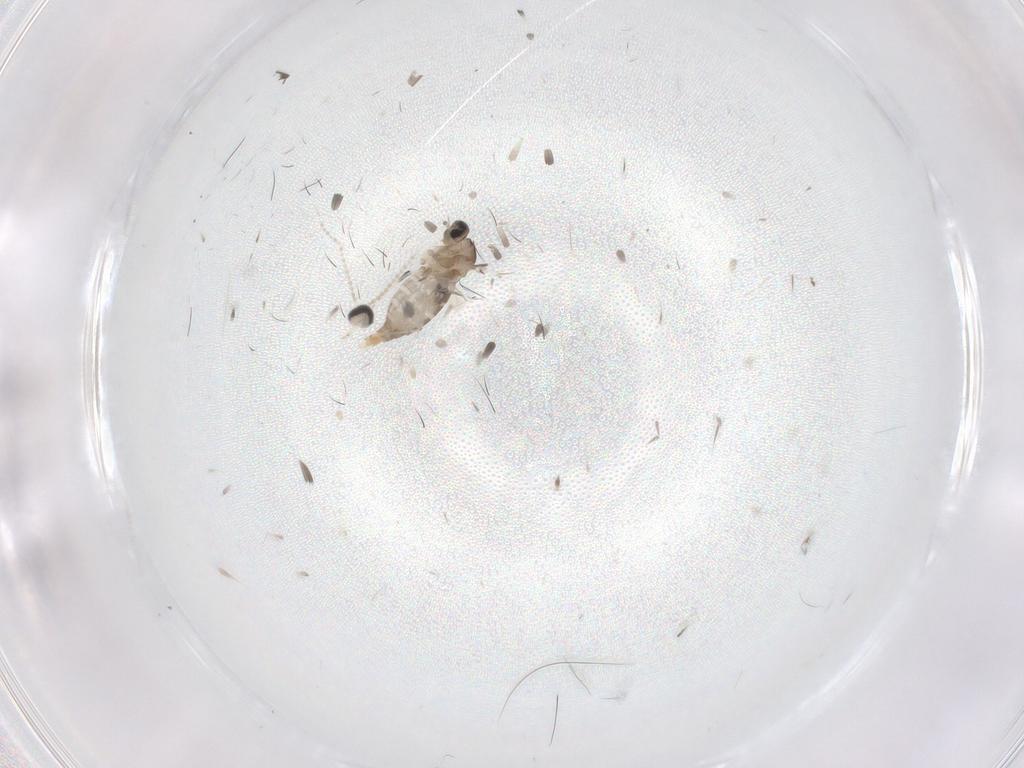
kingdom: Animalia
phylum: Arthropoda
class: Insecta
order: Diptera
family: Cecidomyiidae
